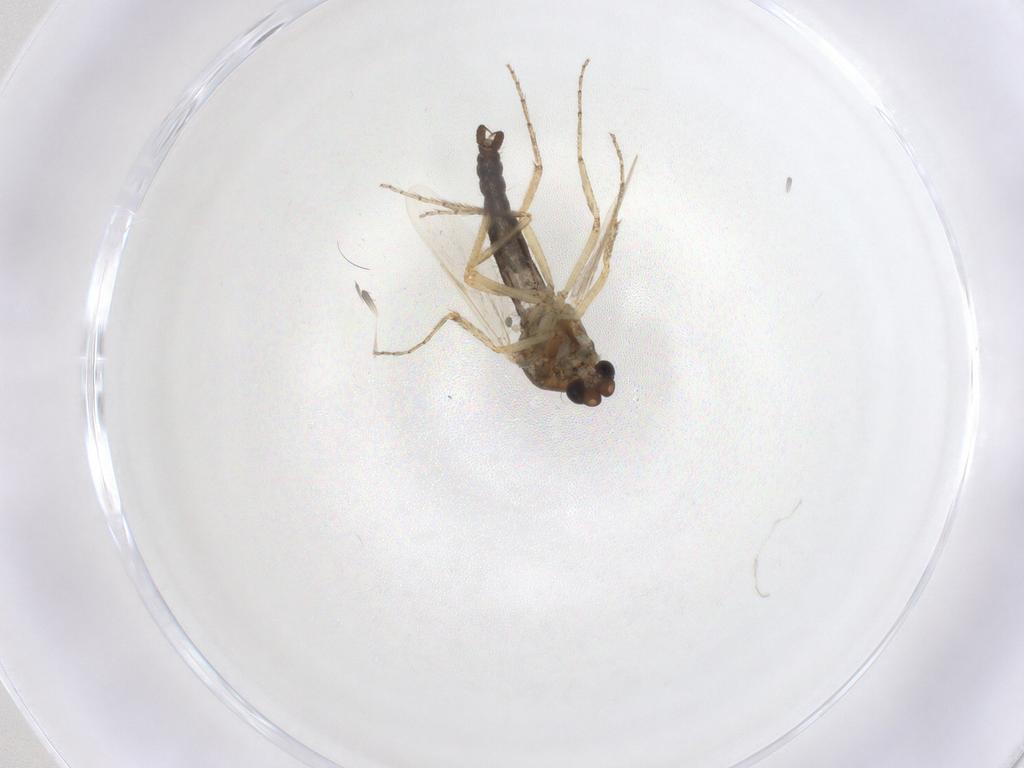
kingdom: Animalia
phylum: Arthropoda
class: Insecta
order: Diptera
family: Ceratopogonidae
